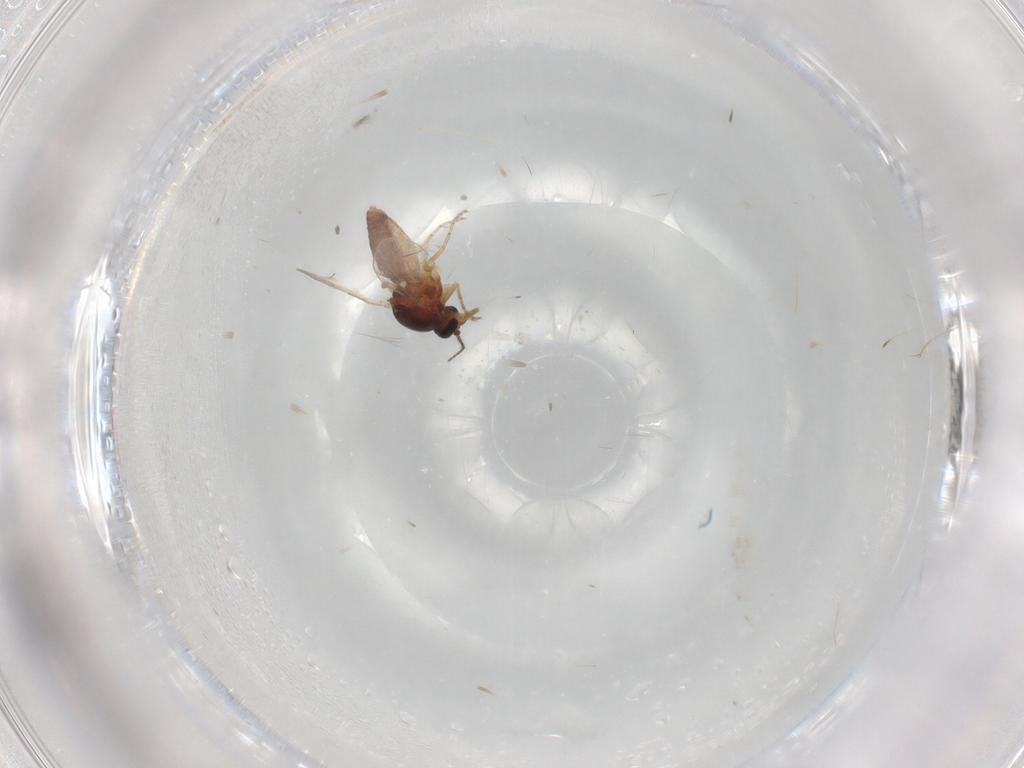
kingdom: Animalia
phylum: Arthropoda
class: Insecta
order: Diptera
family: Ceratopogonidae
